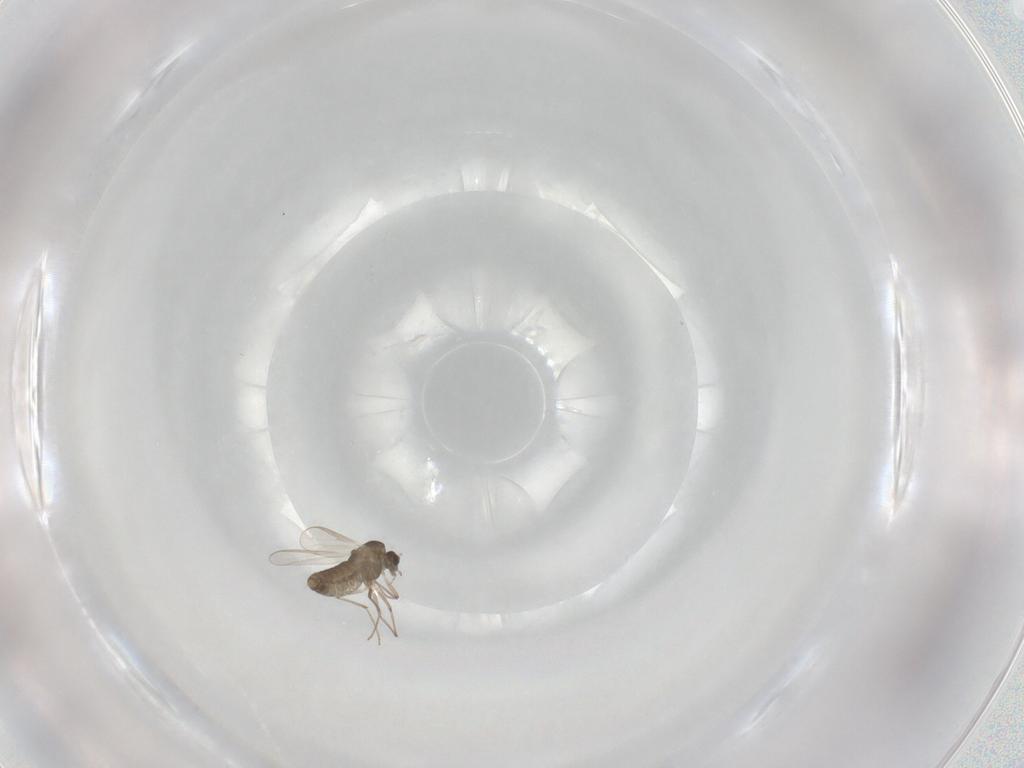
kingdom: Animalia
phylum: Arthropoda
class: Insecta
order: Diptera
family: Chironomidae
